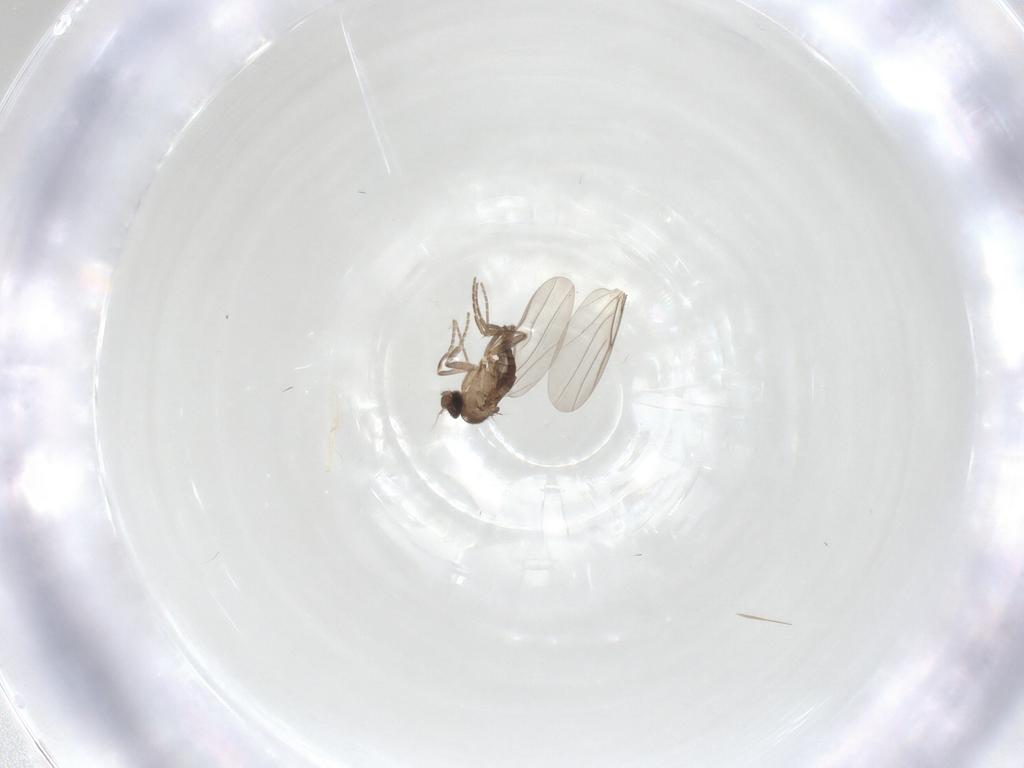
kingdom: Animalia
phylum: Arthropoda
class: Insecta
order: Diptera
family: Phoridae
